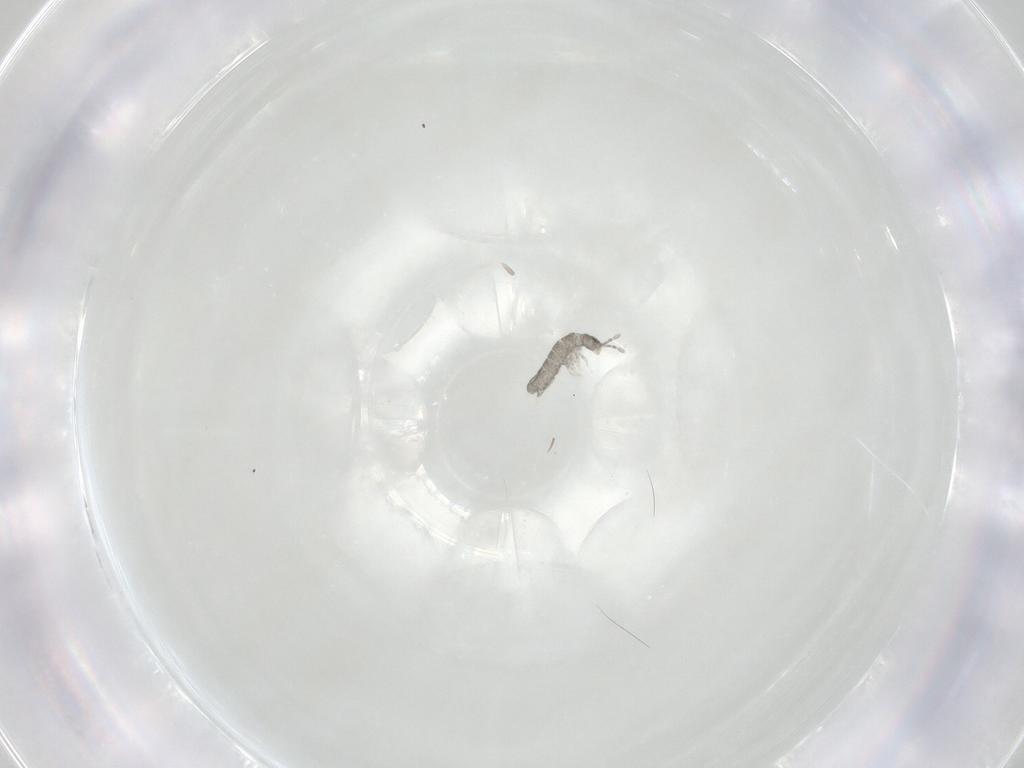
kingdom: Animalia
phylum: Arthropoda
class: Collembola
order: Entomobryomorpha
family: Isotomidae
